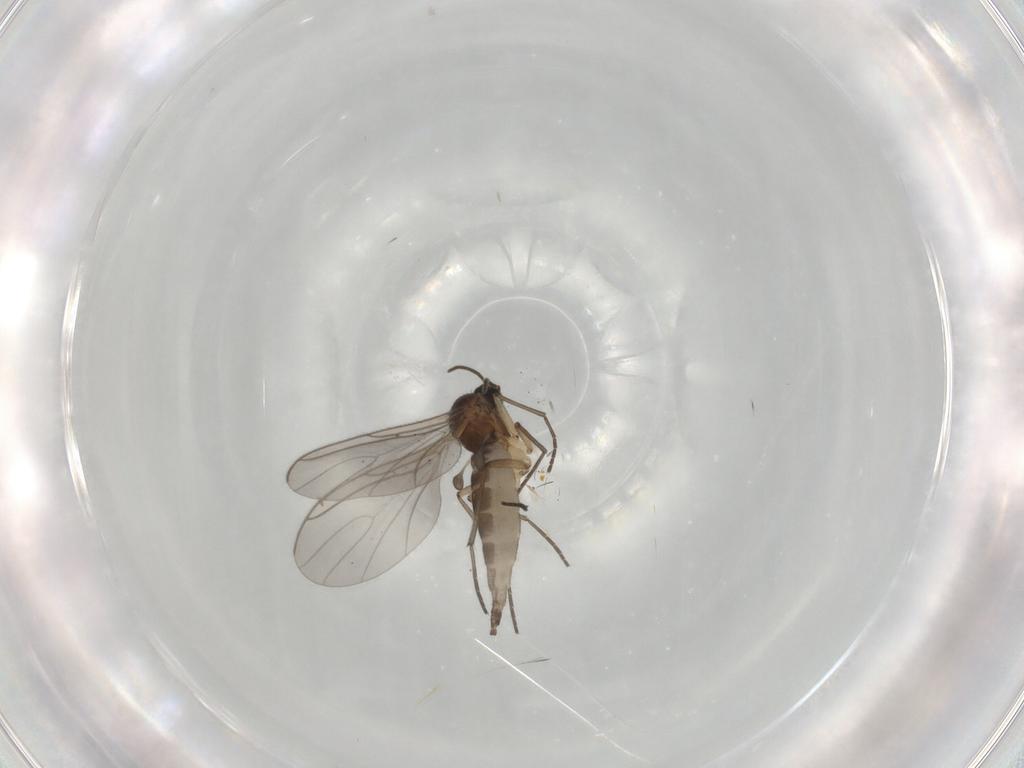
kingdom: Animalia
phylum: Arthropoda
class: Insecta
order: Diptera
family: Sciaridae
